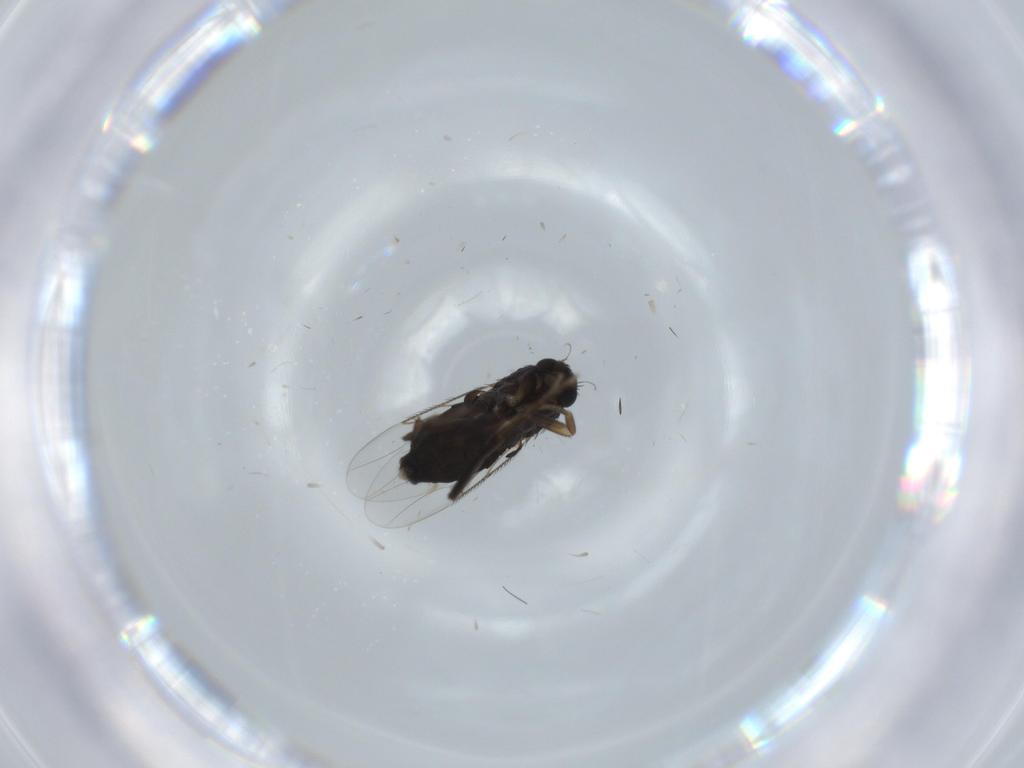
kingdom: Animalia
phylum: Arthropoda
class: Insecta
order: Diptera
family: Phoridae
